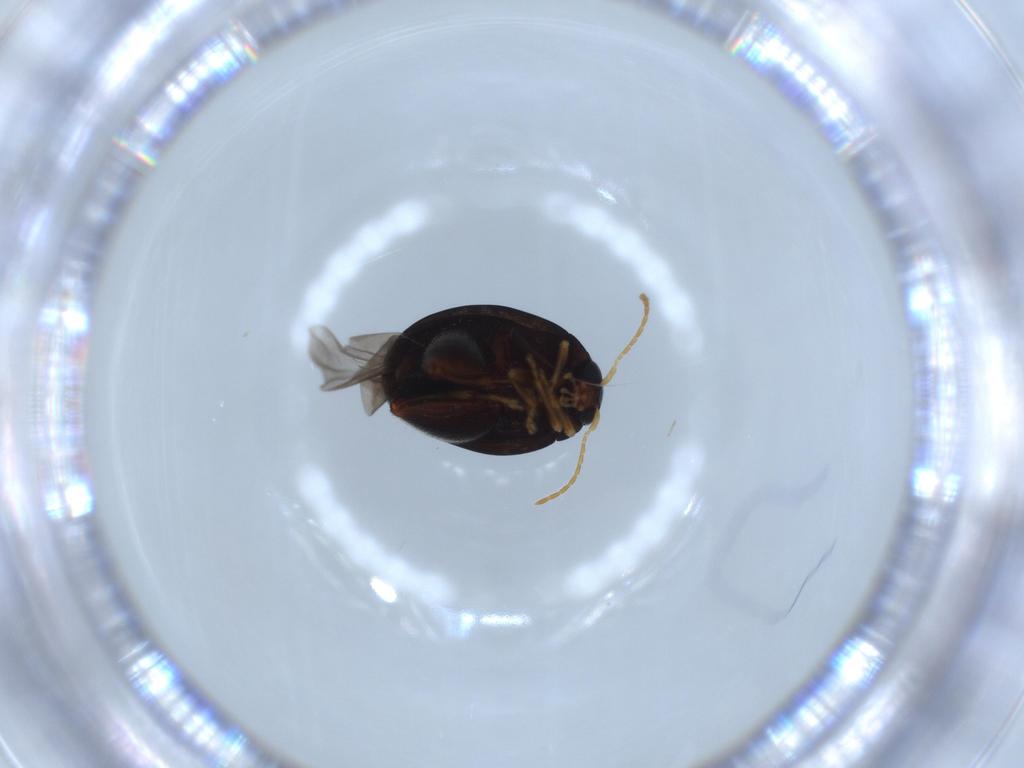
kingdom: Animalia
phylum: Arthropoda
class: Insecta
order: Coleoptera
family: Chrysomelidae
